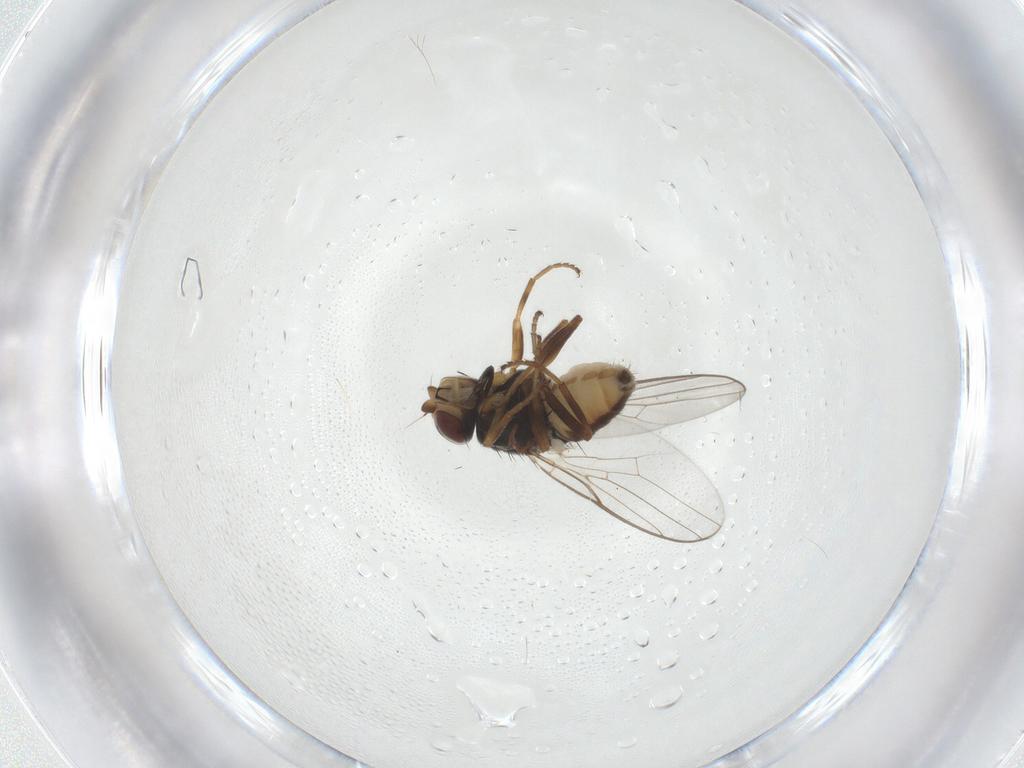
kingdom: Animalia
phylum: Arthropoda
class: Insecta
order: Diptera
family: Chloropidae
